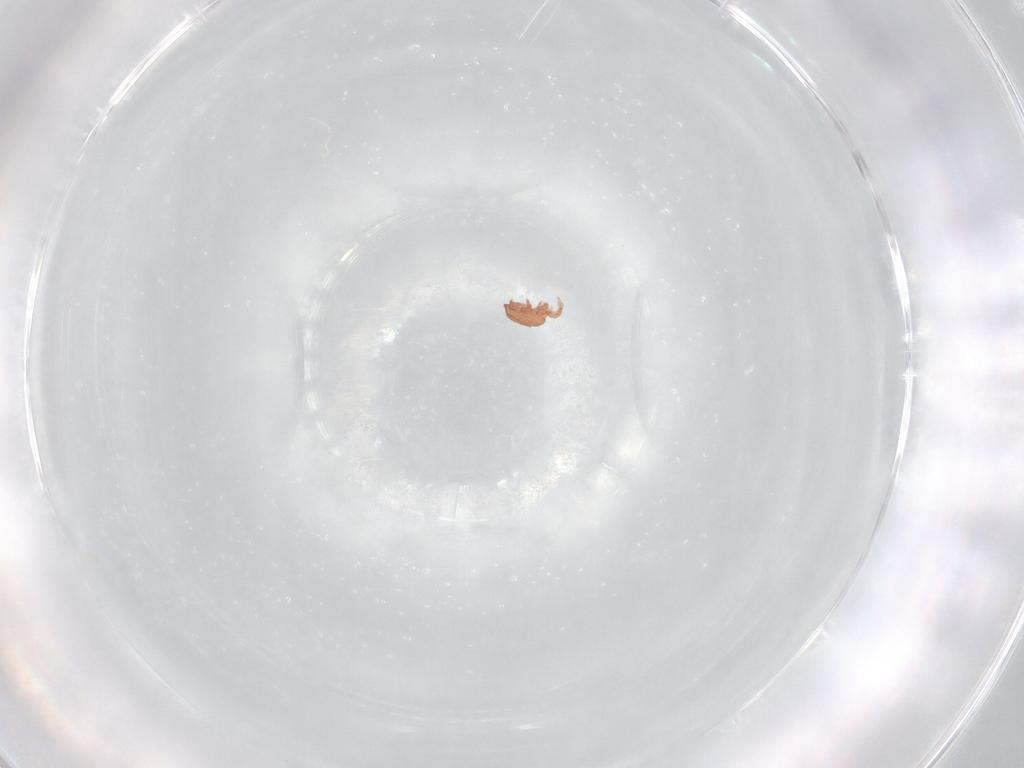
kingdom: Animalia
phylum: Arthropoda
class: Arachnida
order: Mesostigmata
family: Zerconidae
